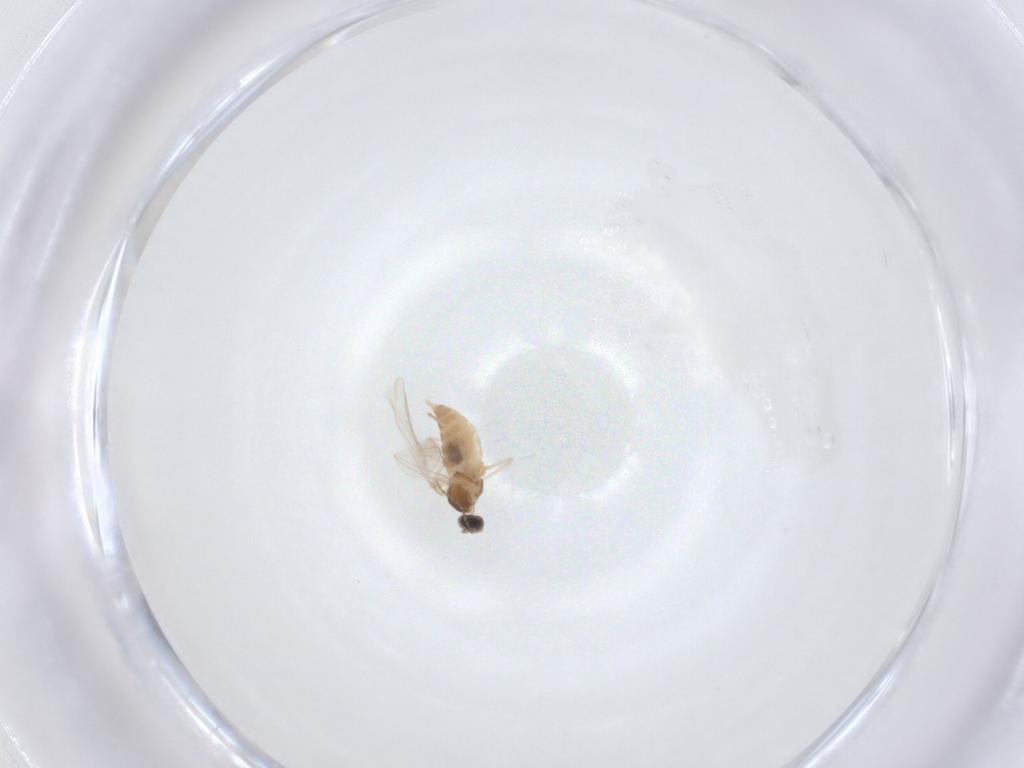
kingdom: Animalia
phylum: Arthropoda
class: Insecta
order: Diptera
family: Cecidomyiidae
